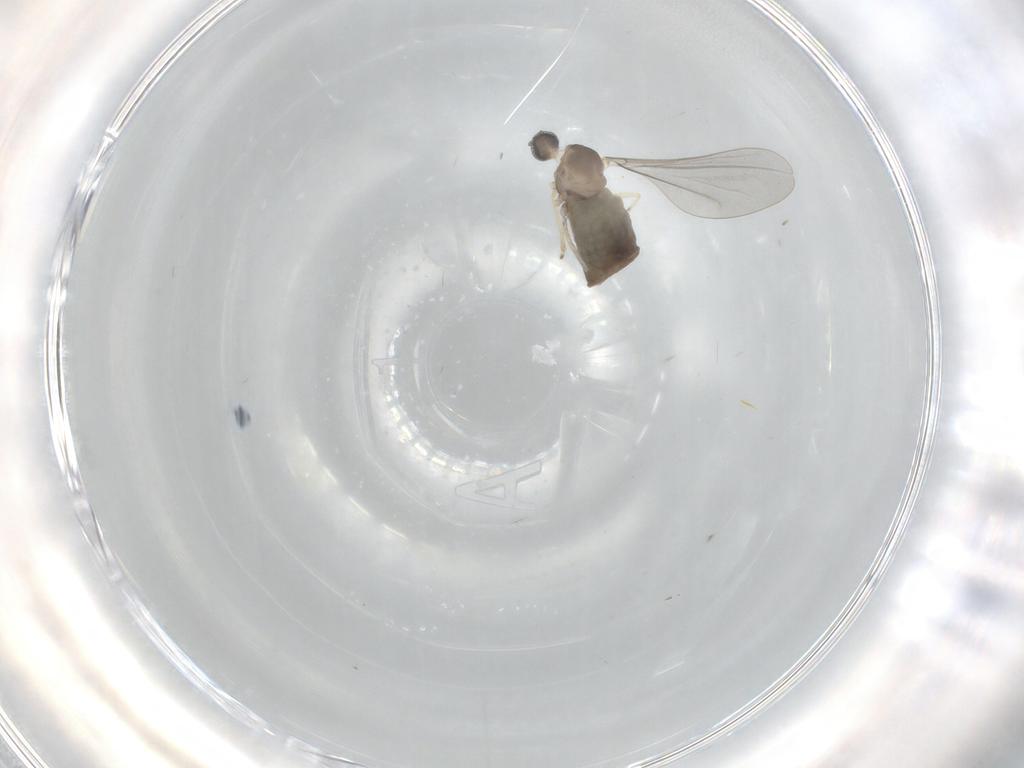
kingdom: Animalia
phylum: Arthropoda
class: Insecta
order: Diptera
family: Cecidomyiidae
